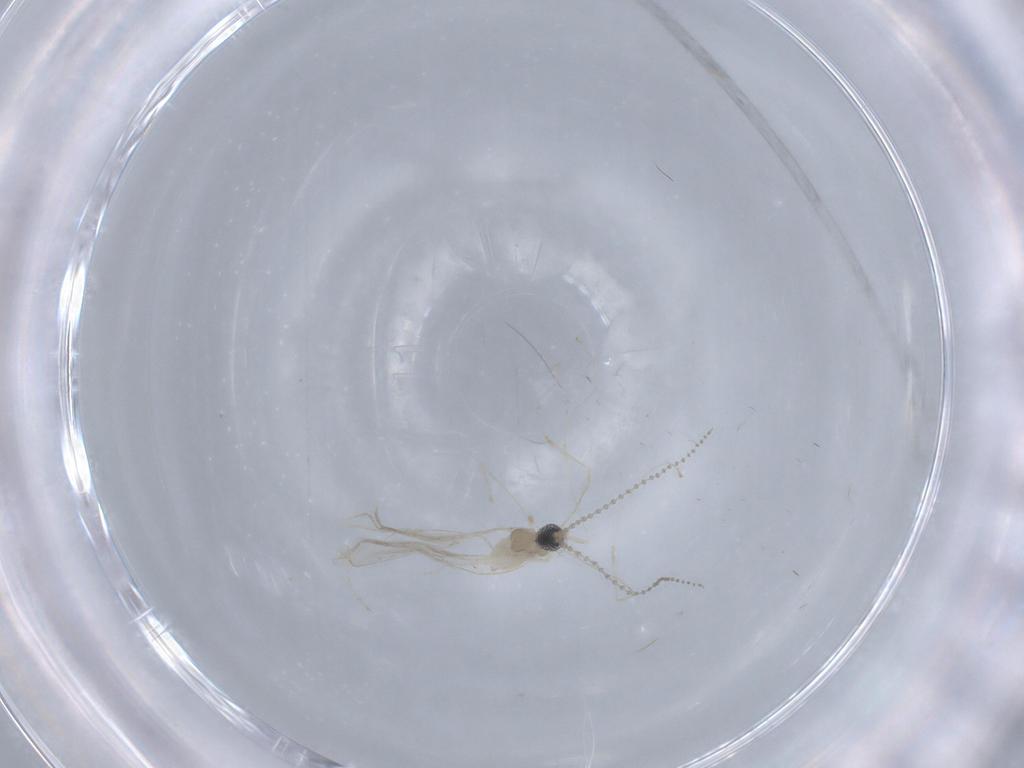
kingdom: Animalia
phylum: Arthropoda
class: Insecta
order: Diptera
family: Cecidomyiidae
